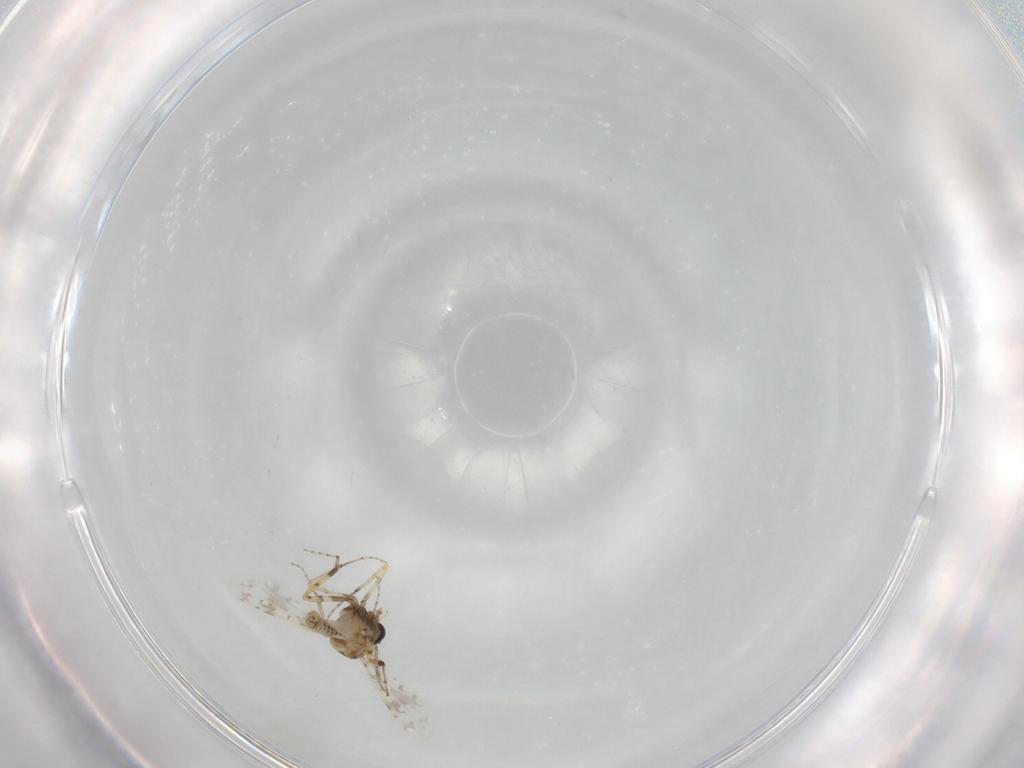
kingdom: Animalia
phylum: Arthropoda
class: Insecta
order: Diptera
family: Ceratopogonidae
